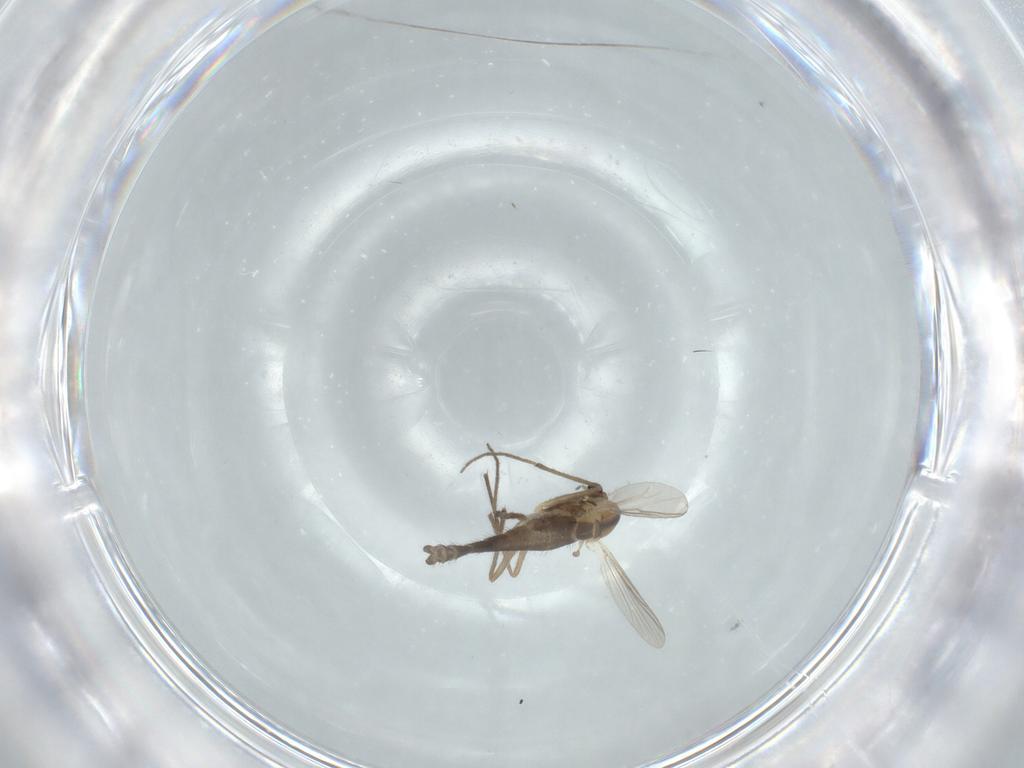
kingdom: Animalia
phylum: Arthropoda
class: Insecta
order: Diptera
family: Chironomidae
